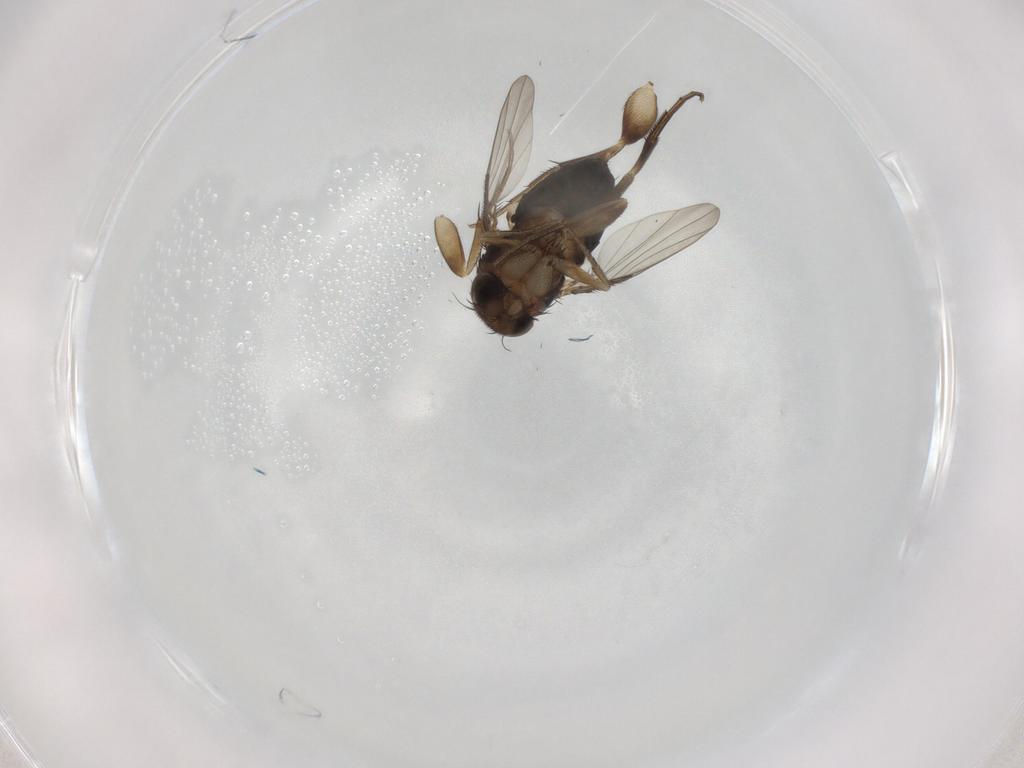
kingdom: Animalia
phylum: Arthropoda
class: Insecta
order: Diptera
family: Phoridae
